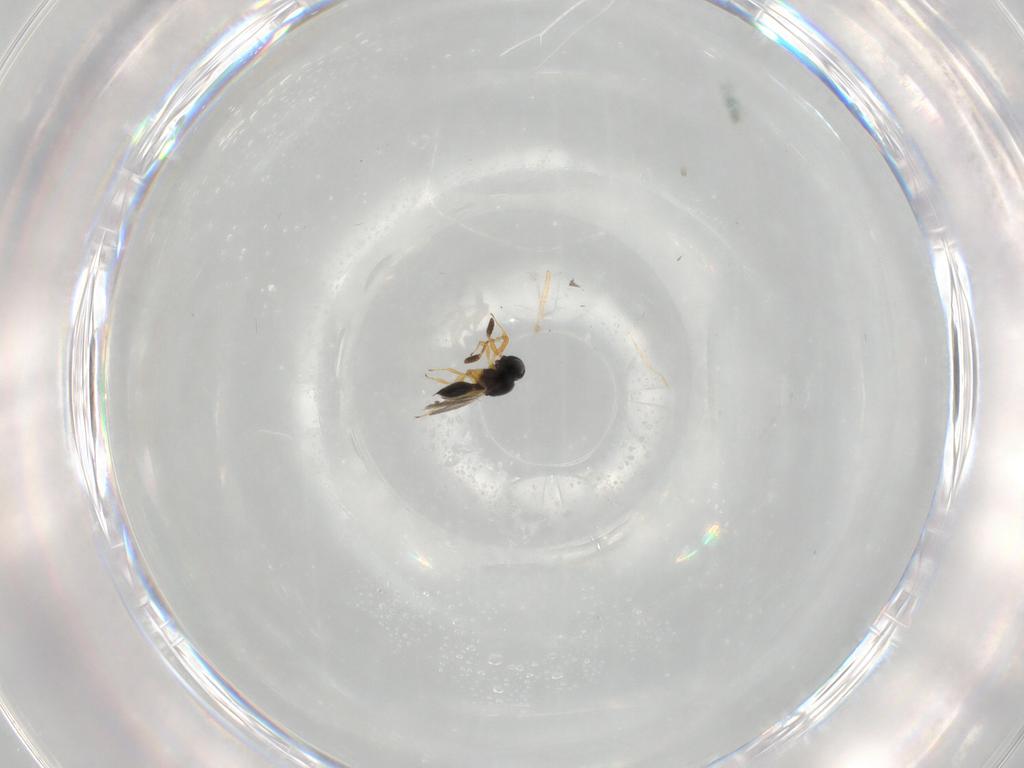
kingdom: Animalia
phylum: Arthropoda
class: Insecta
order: Hymenoptera
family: Scelionidae
